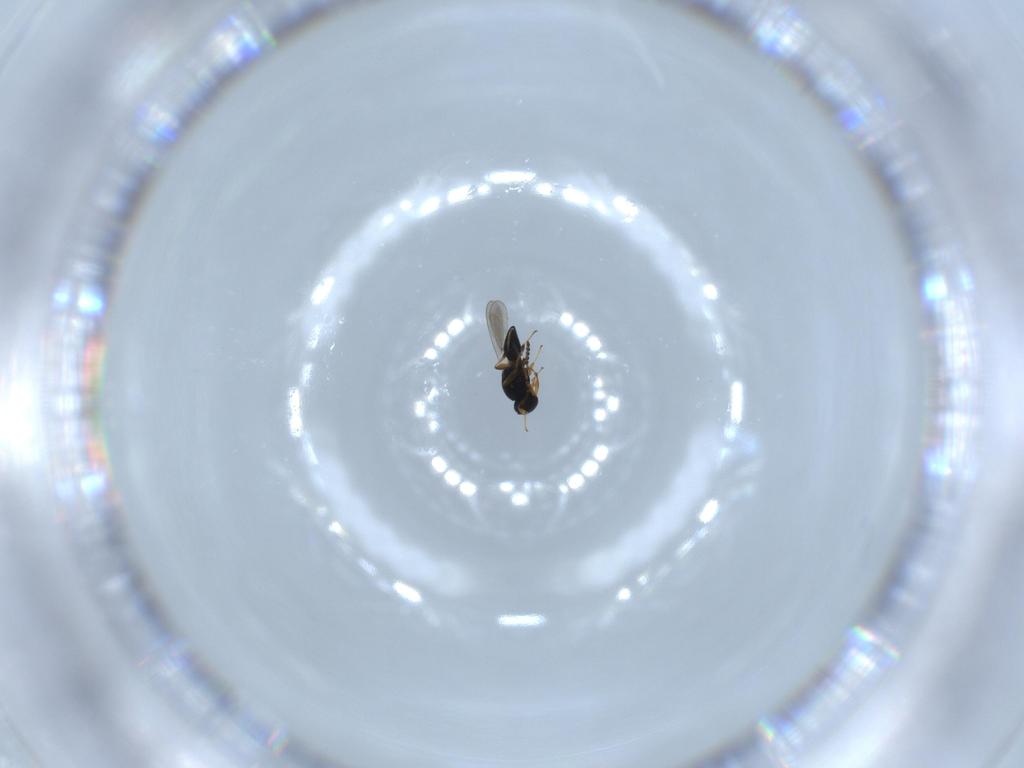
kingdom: Animalia
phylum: Arthropoda
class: Insecta
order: Hymenoptera
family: Platygastridae
